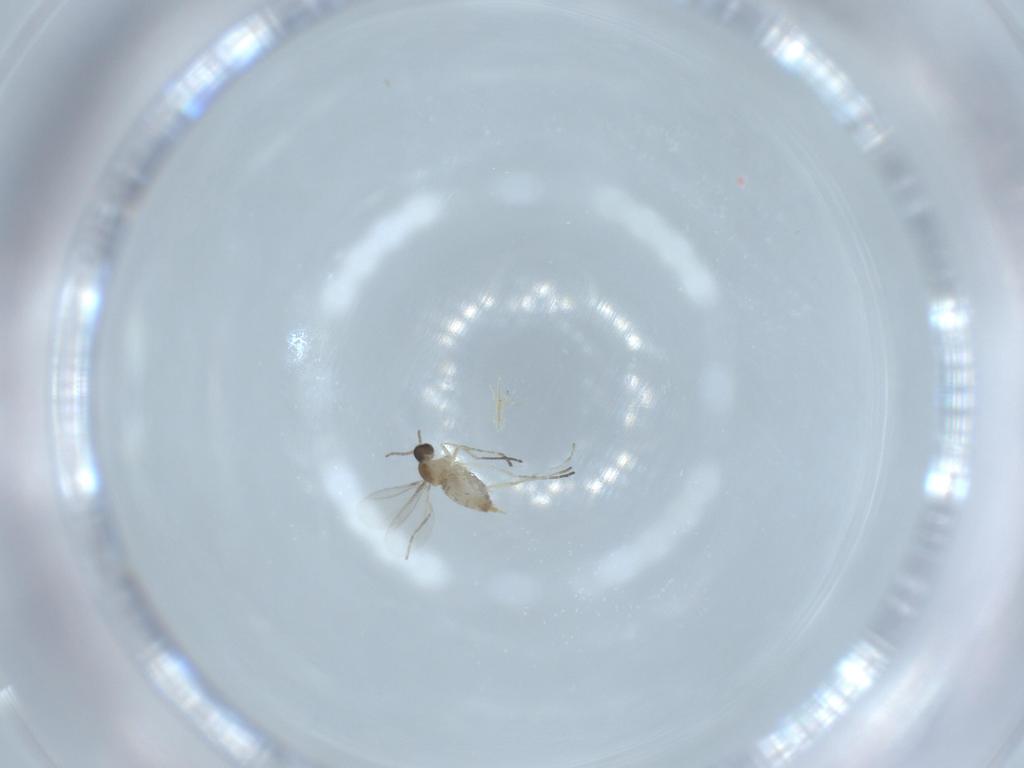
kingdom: Animalia
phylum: Arthropoda
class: Insecta
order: Diptera
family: Cecidomyiidae
